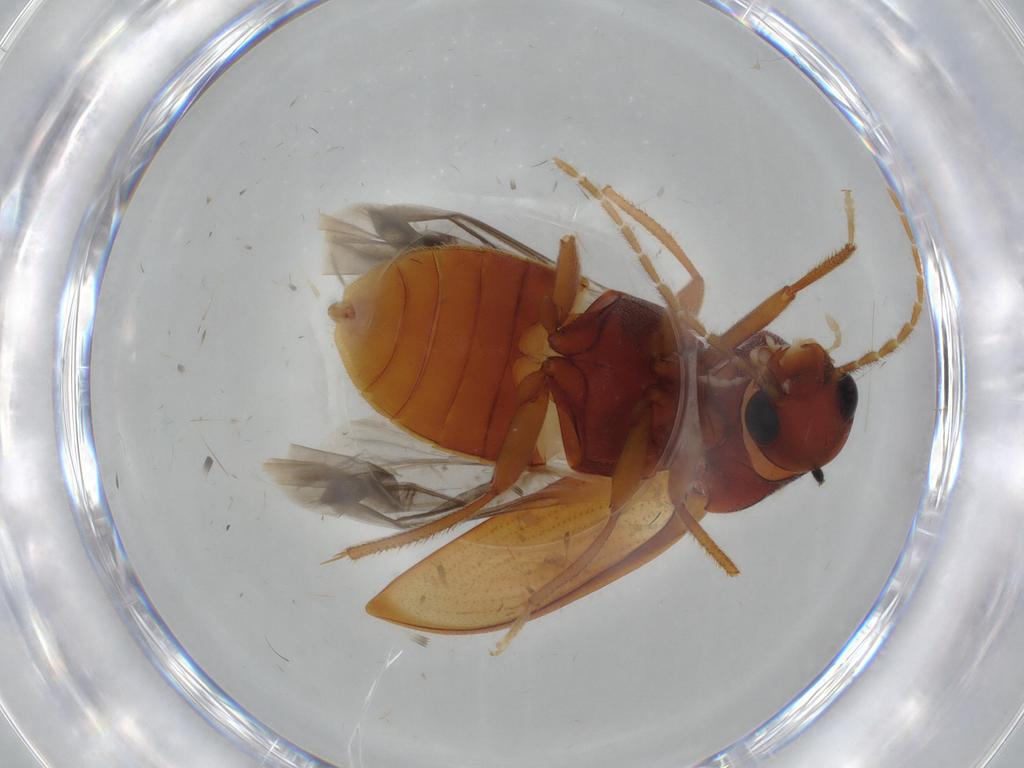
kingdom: Animalia
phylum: Arthropoda
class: Insecta
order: Coleoptera
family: Ptilodactylidae
